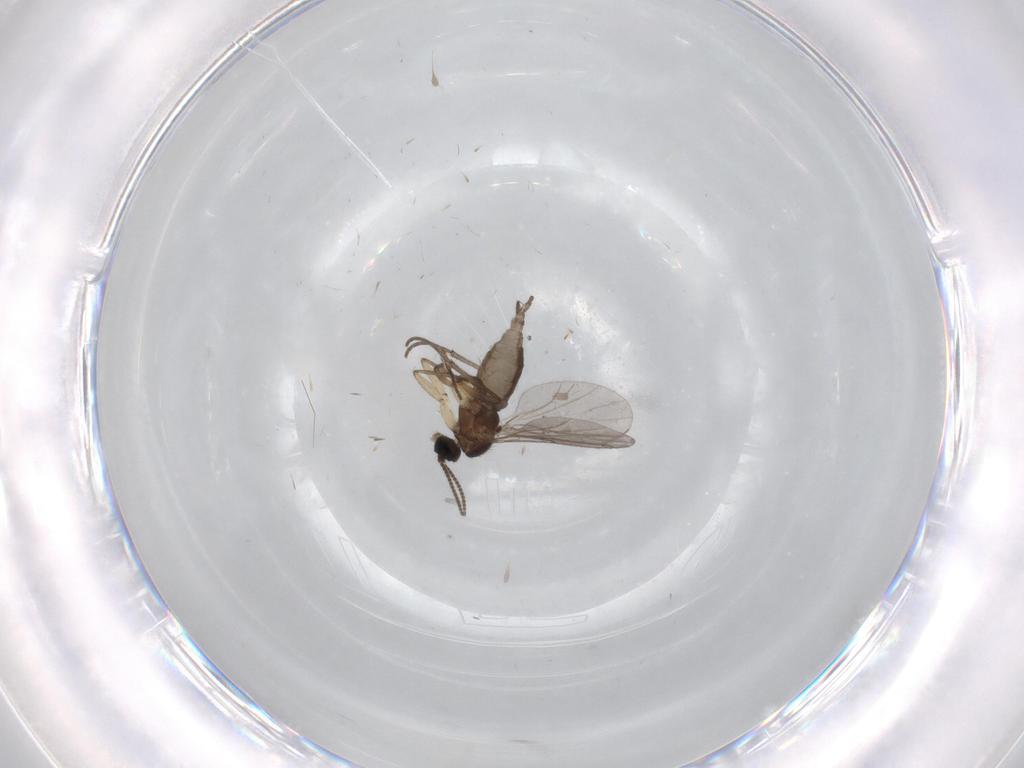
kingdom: Animalia
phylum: Arthropoda
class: Insecta
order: Diptera
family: Sciaridae
